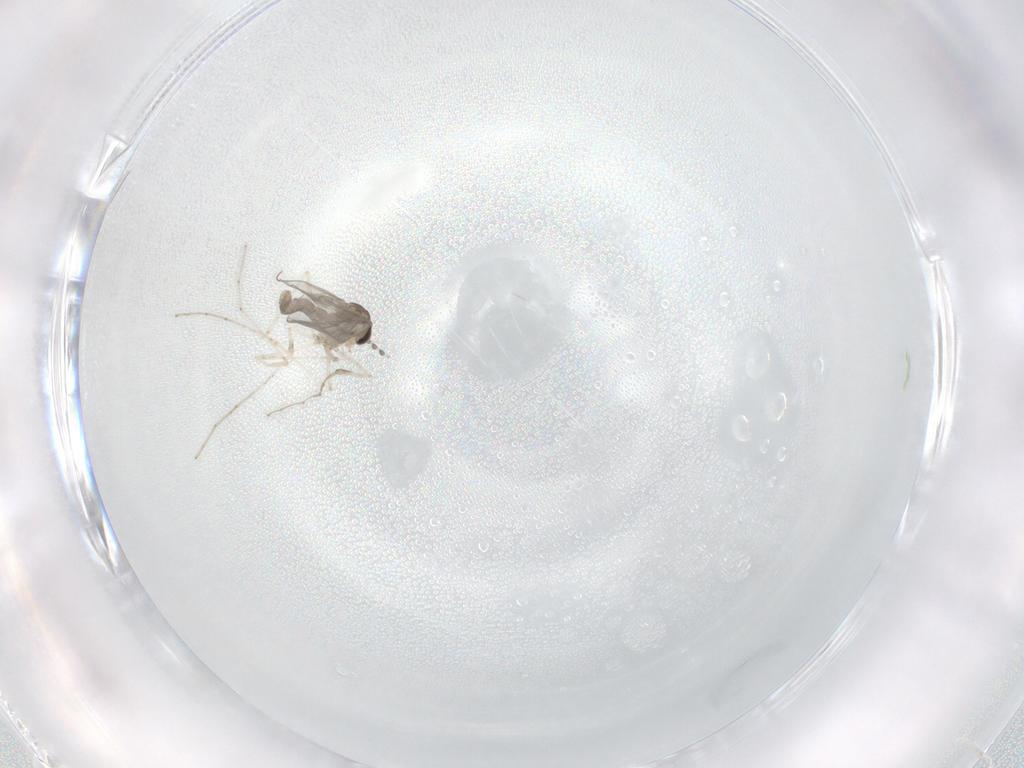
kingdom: Animalia
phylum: Arthropoda
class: Insecta
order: Diptera
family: Cecidomyiidae
